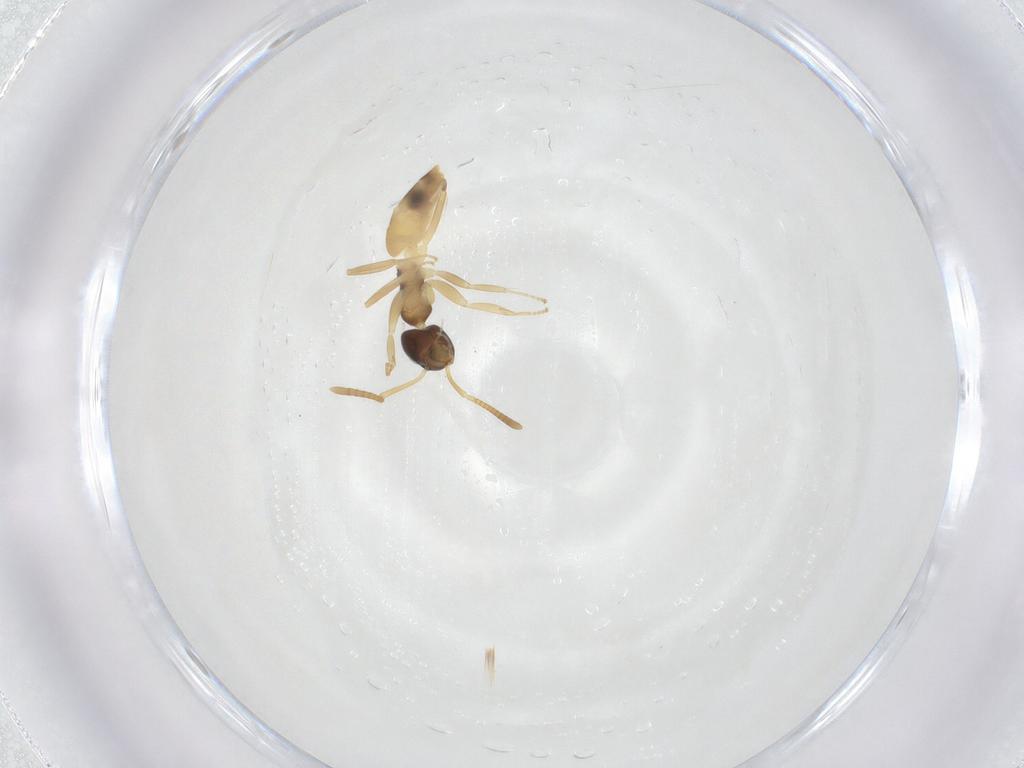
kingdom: Animalia
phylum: Arthropoda
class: Insecta
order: Hymenoptera
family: Formicidae
